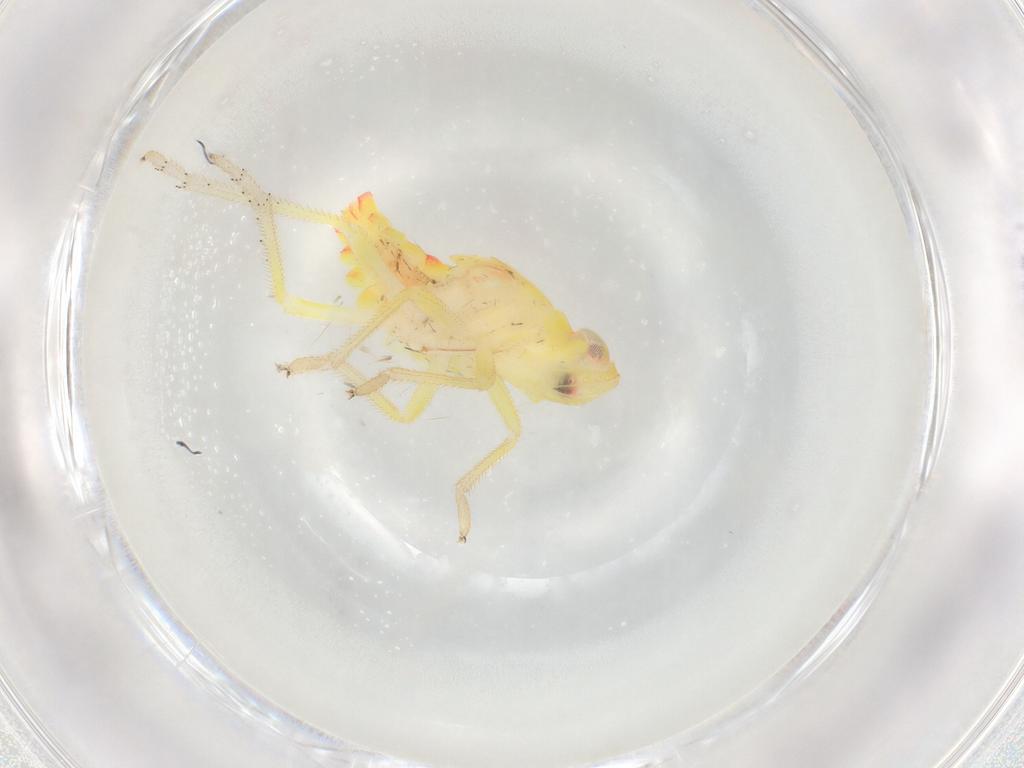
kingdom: Animalia
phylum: Arthropoda
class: Insecta
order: Hemiptera
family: Tropiduchidae
